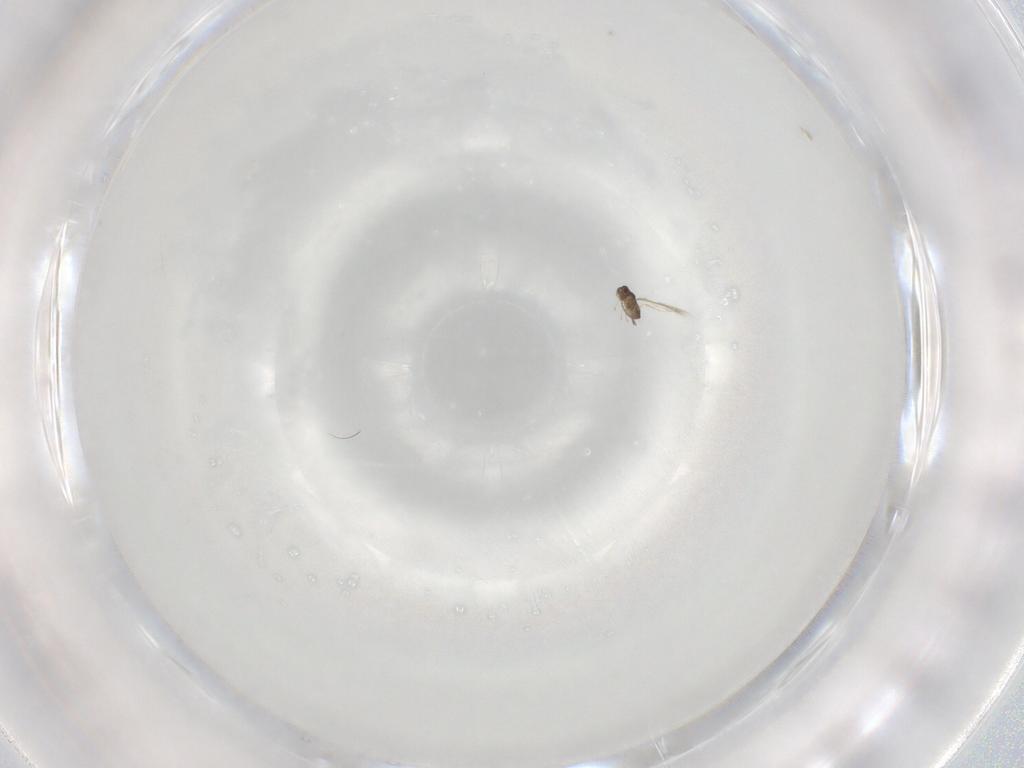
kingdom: Animalia
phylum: Arthropoda
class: Insecta
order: Hymenoptera
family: Mymaridae
